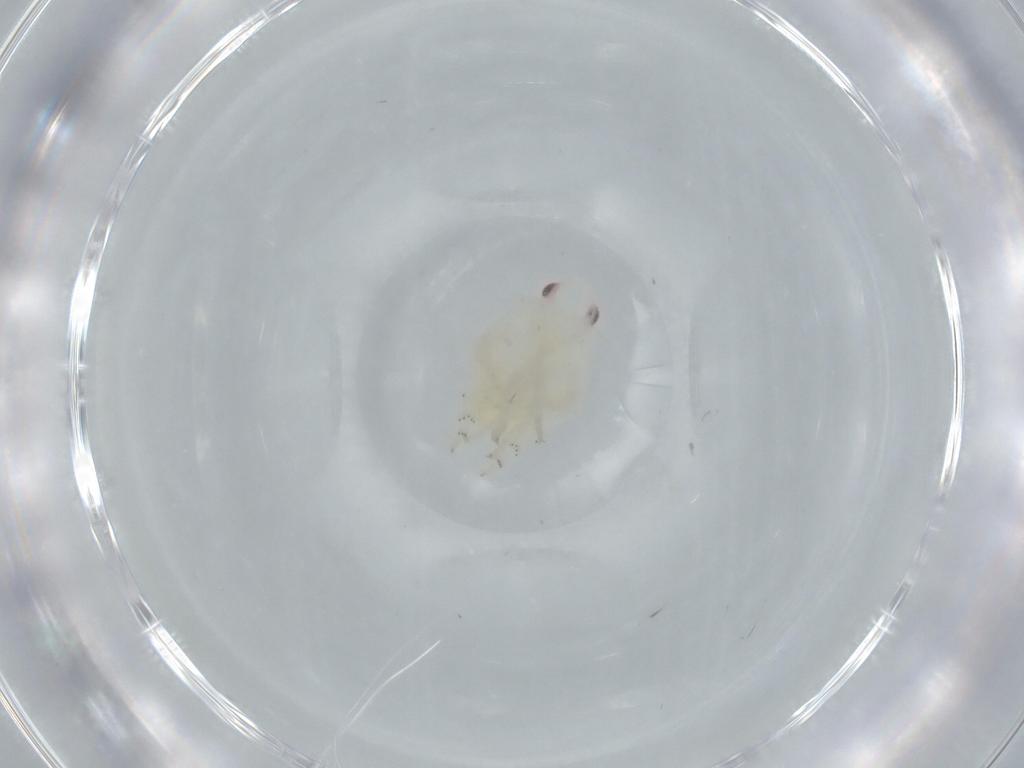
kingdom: Animalia
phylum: Arthropoda
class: Insecta
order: Hemiptera
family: Flatidae
